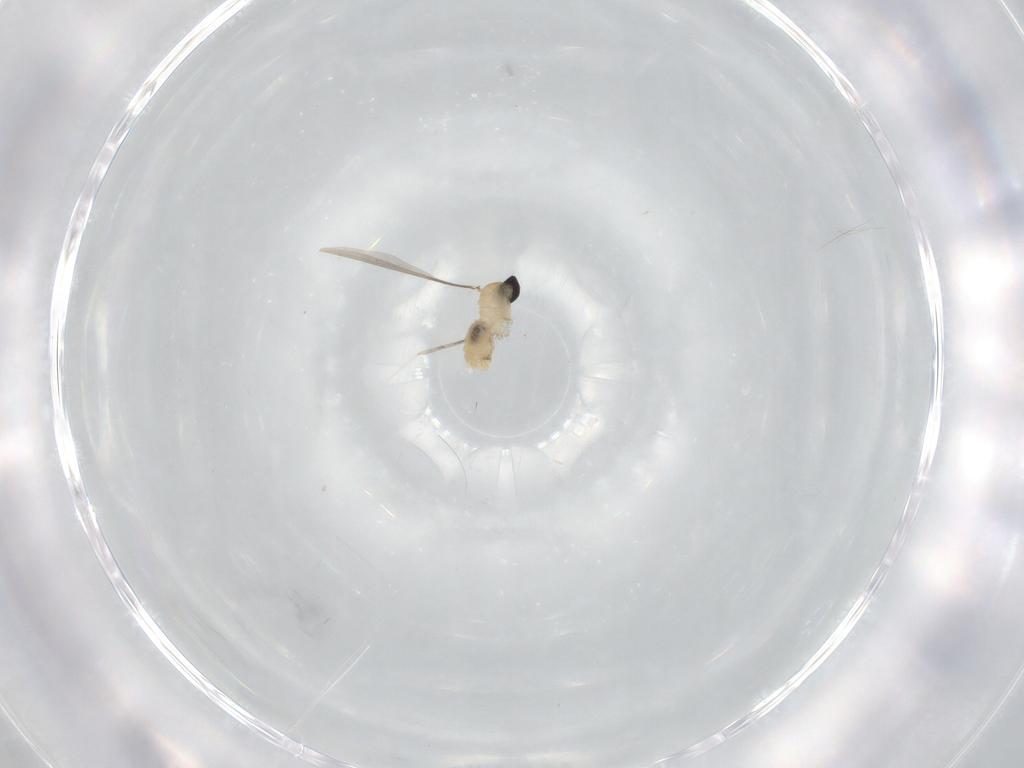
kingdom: Animalia
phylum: Arthropoda
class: Insecta
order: Diptera
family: Cecidomyiidae
